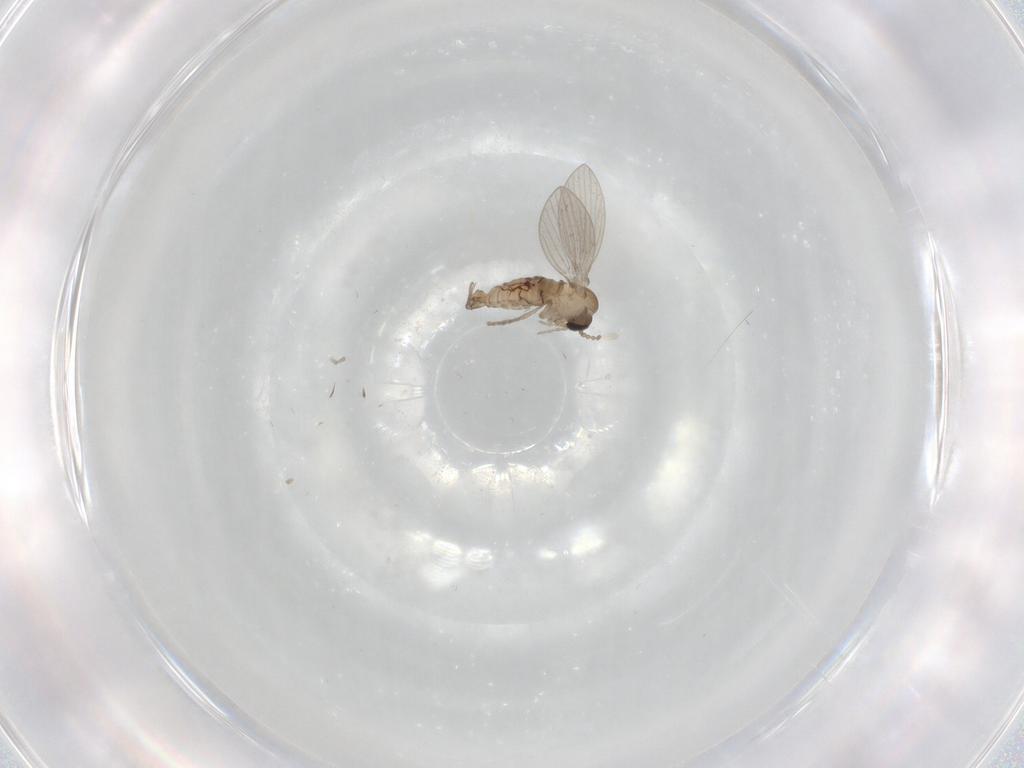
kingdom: Animalia
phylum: Arthropoda
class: Insecta
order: Diptera
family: Psychodidae
